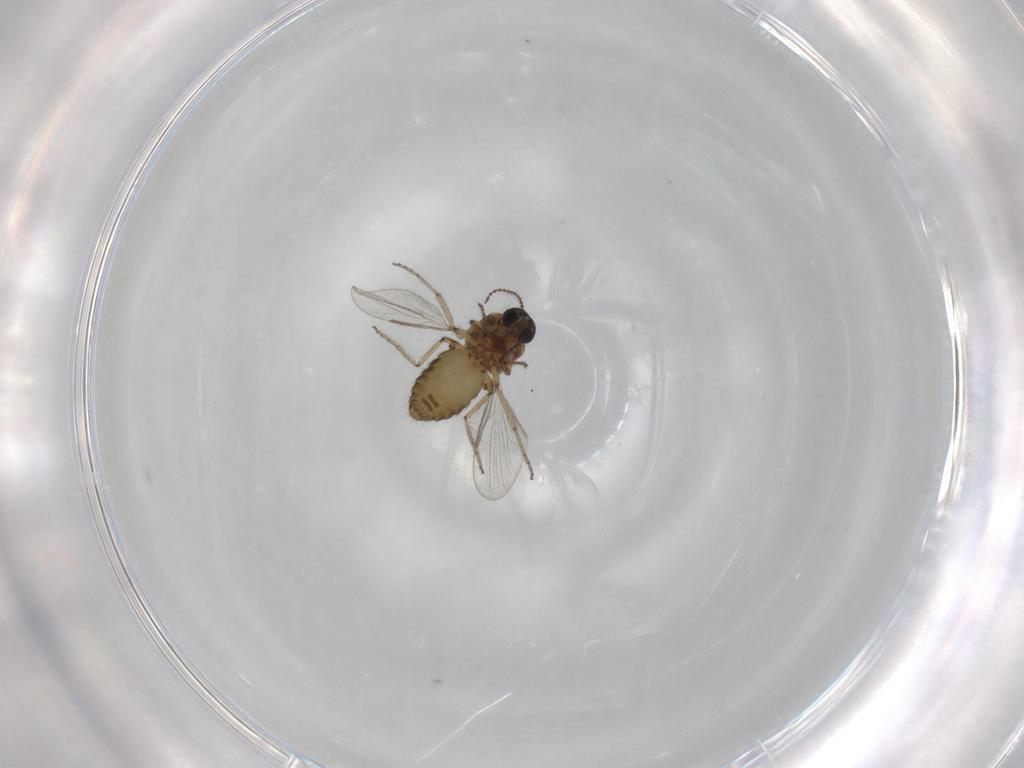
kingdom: Animalia
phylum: Arthropoda
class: Insecta
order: Diptera
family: Ceratopogonidae
